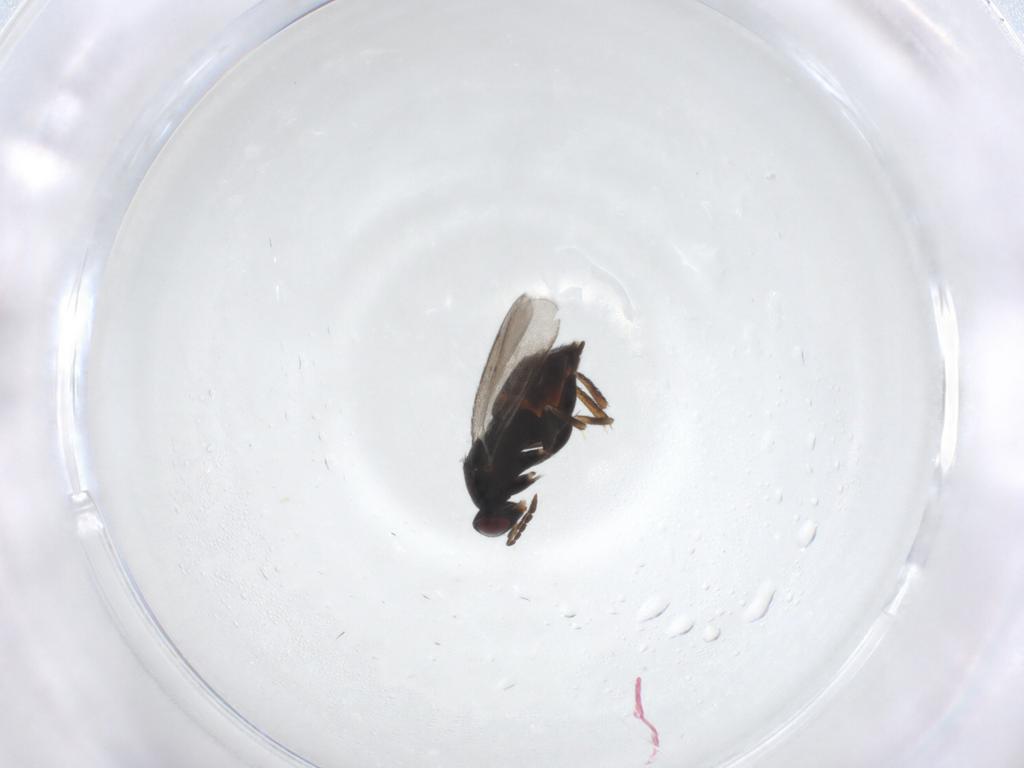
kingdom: Animalia
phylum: Arthropoda
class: Insecta
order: Hymenoptera
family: Eulophidae
